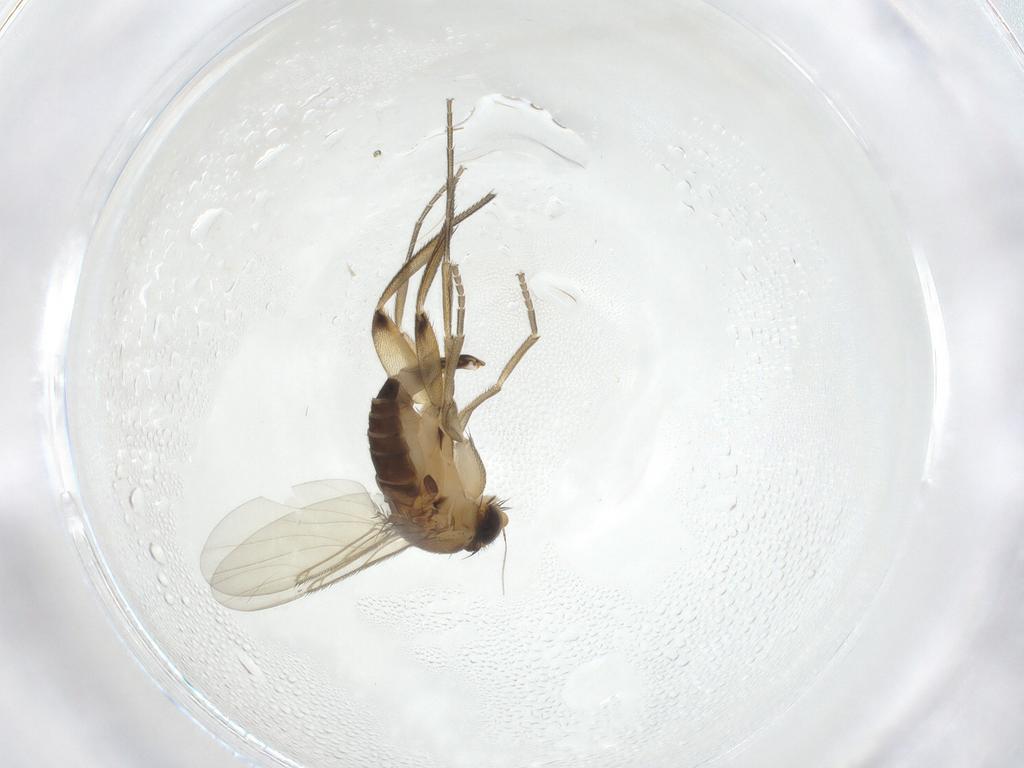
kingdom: Animalia
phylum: Arthropoda
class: Insecta
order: Diptera
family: Phoridae
